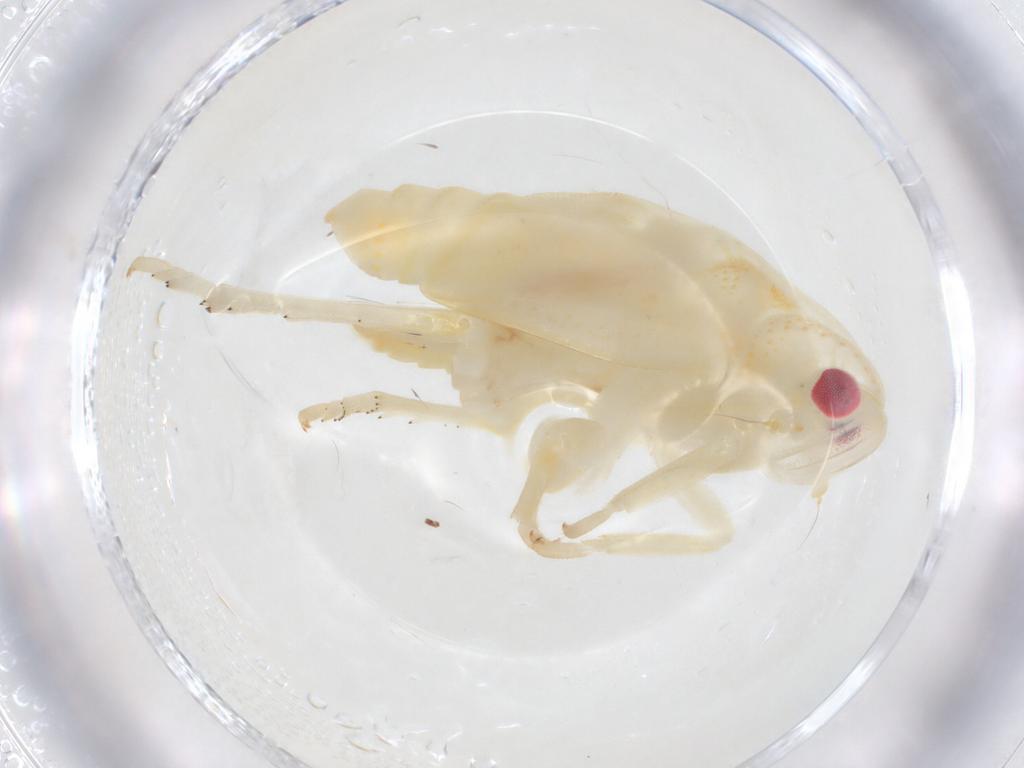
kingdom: Animalia
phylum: Arthropoda
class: Insecta
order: Hemiptera
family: Flatidae
